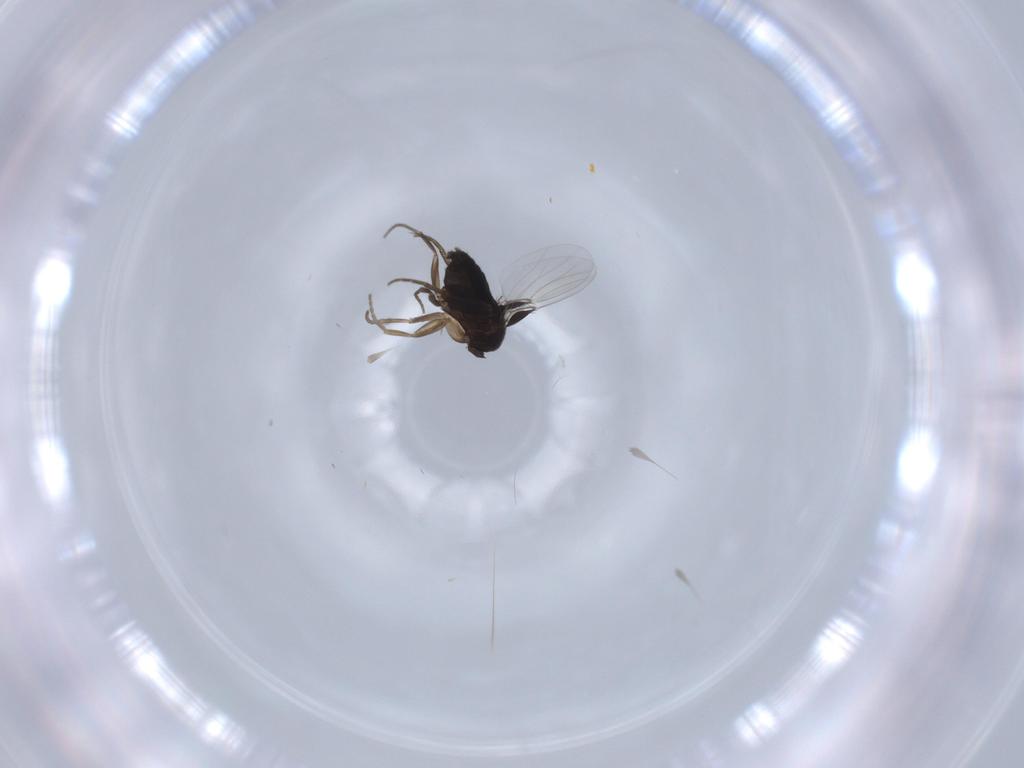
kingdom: Animalia
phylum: Arthropoda
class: Insecta
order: Diptera
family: Phoridae
